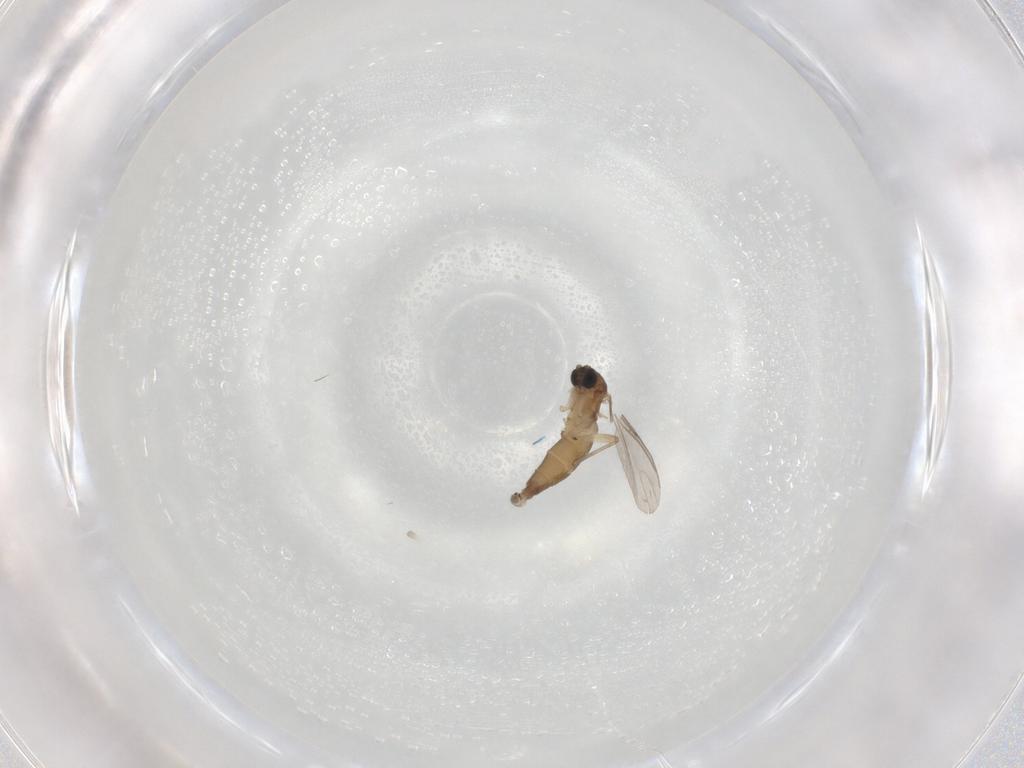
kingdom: Animalia
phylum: Arthropoda
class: Insecta
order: Diptera
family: Sciaridae
